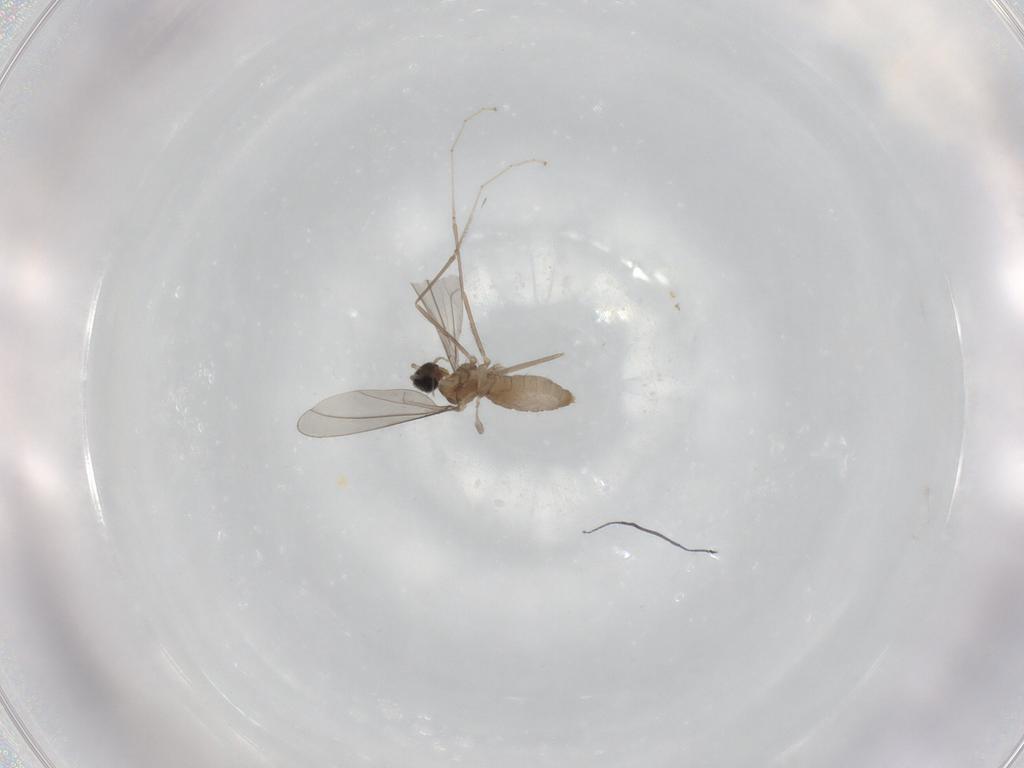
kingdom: Animalia
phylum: Arthropoda
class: Insecta
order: Diptera
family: Cecidomyiidae
